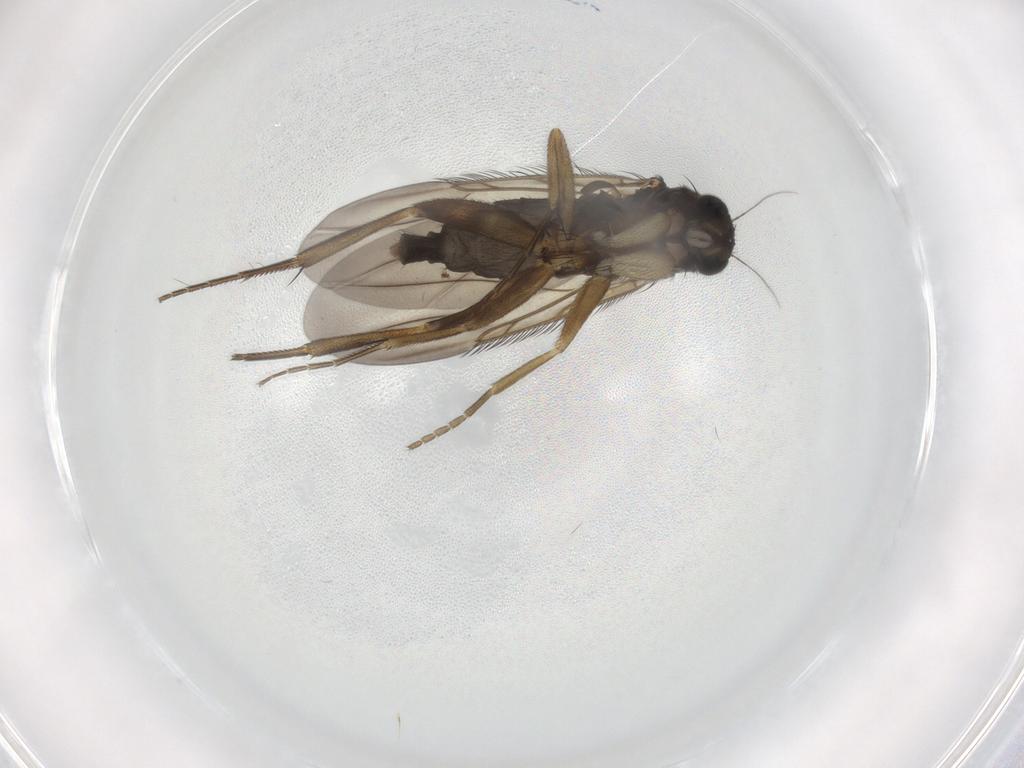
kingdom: Animalia
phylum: Arthropoda
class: Insecta
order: Diptera
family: Phoridae
